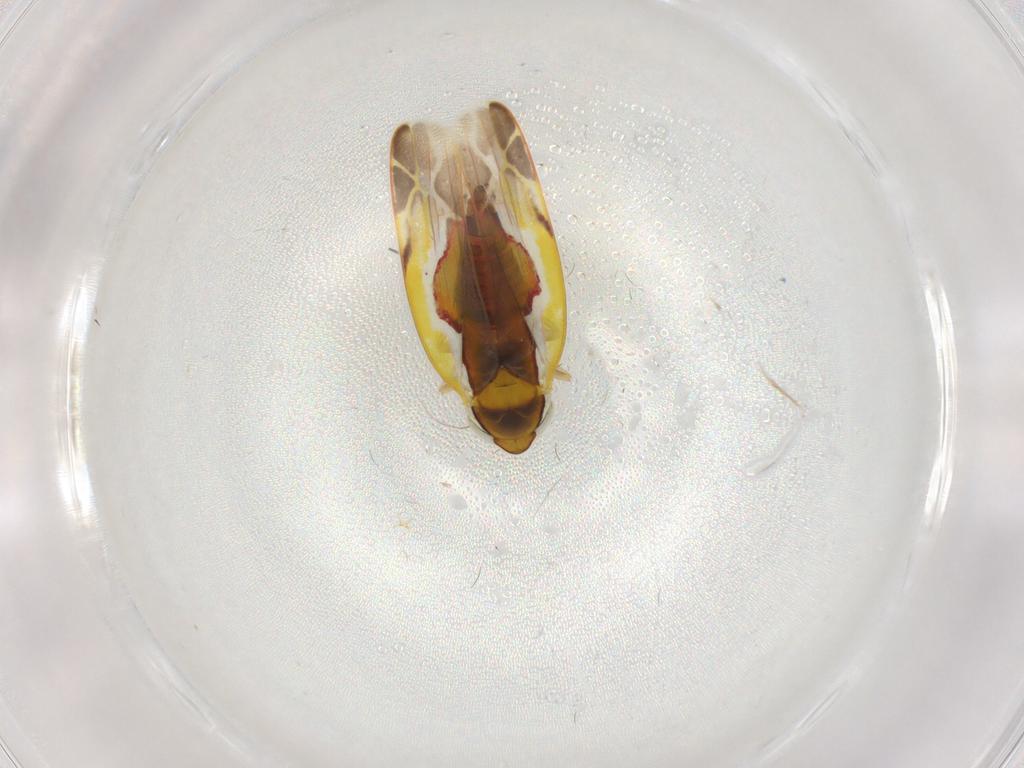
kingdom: Animalia
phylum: Arthropoda
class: Insecta
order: Hemiptera
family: Cicadellidae
